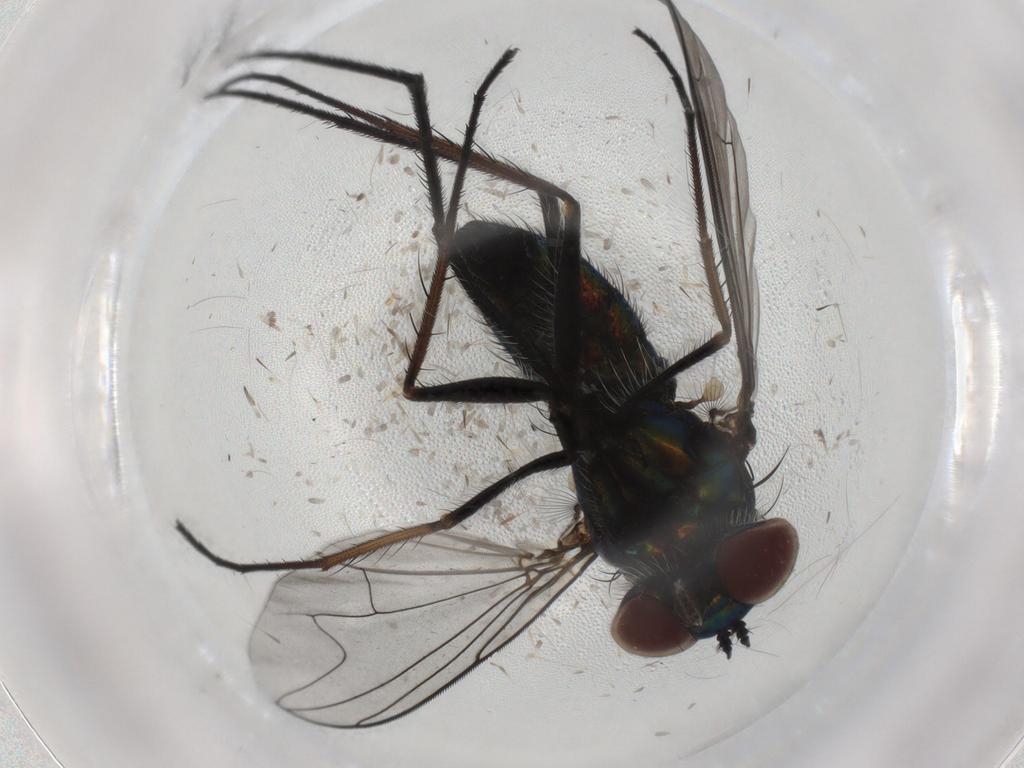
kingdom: Animalia
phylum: Arthropoda
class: Insecta
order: Diptera
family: Dolichopodidae
